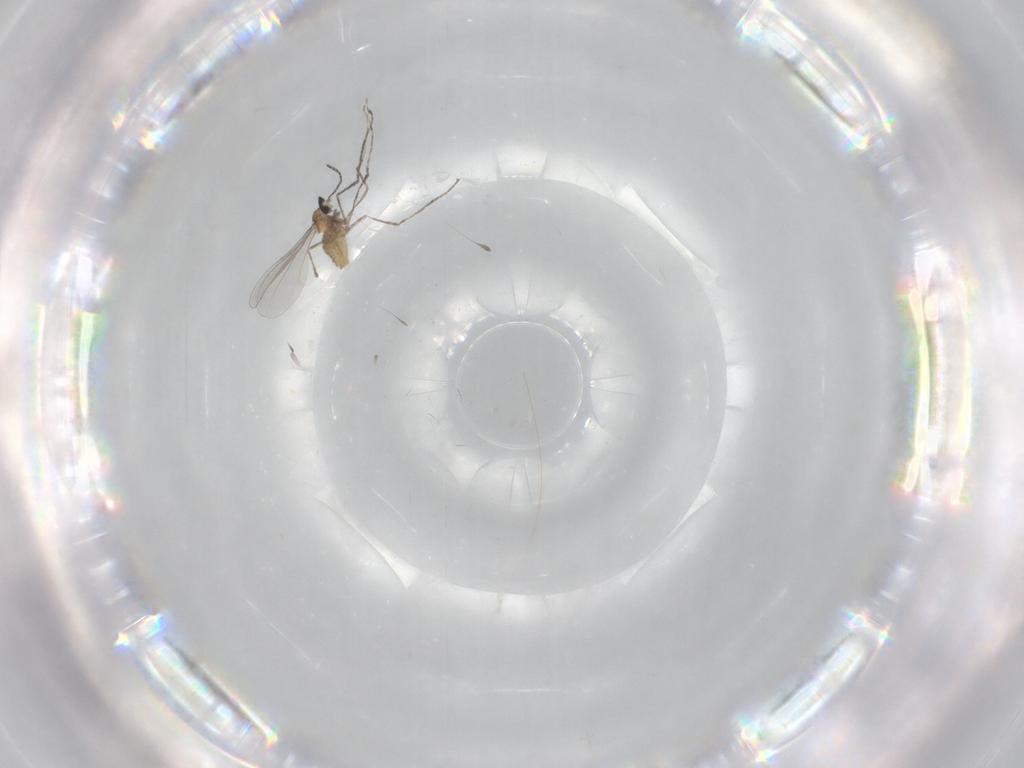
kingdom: Animalia
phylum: Arthropoda
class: Insecta
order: Diptera
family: Cecidomyiidae
